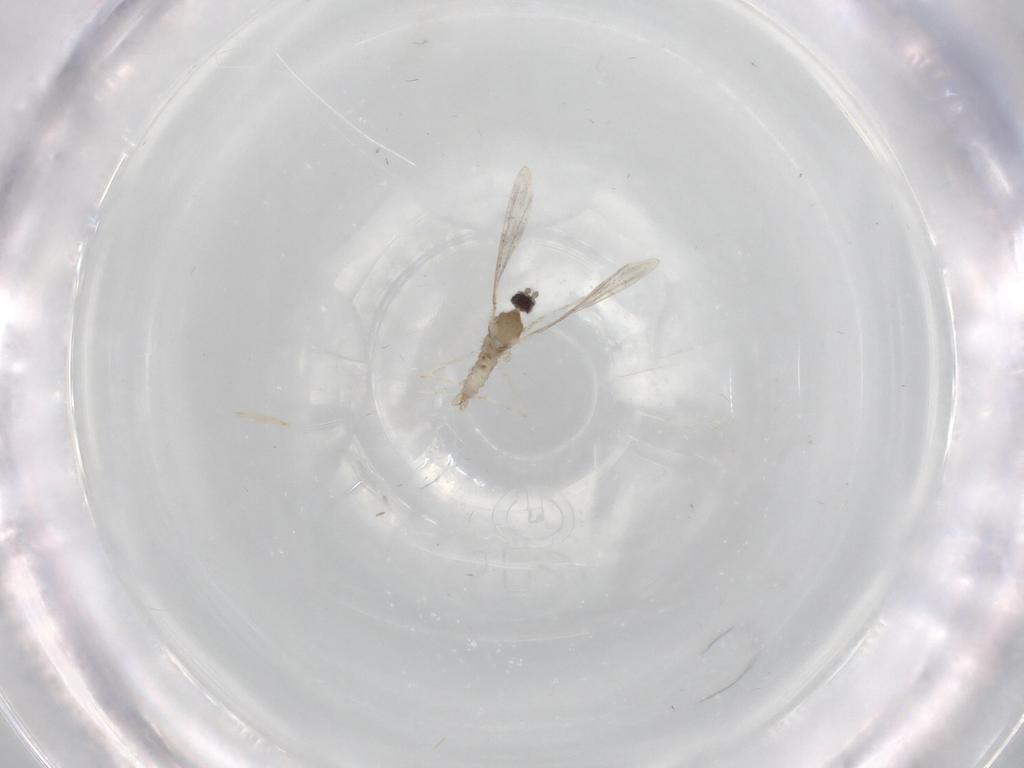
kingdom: Animalia
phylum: Arthropoda
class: Insecta
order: Diptera
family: Cecidomyiidae
